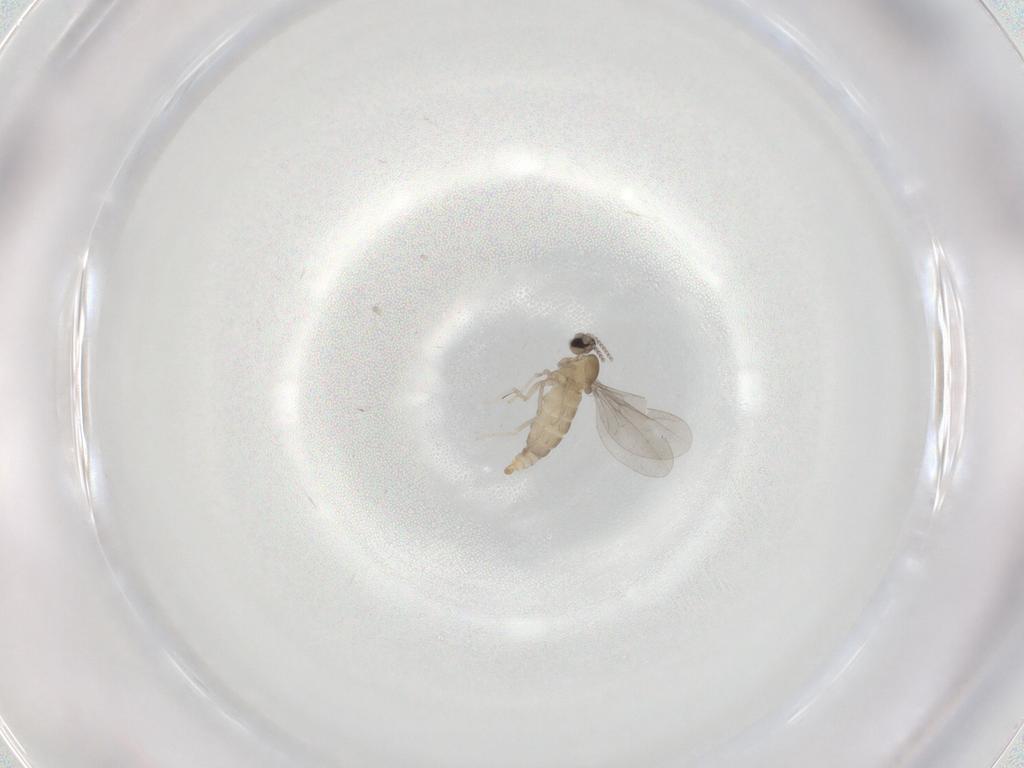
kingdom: Animalia
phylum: Arthropoda
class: Insecta
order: Diptera
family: Cecidomyiidae
